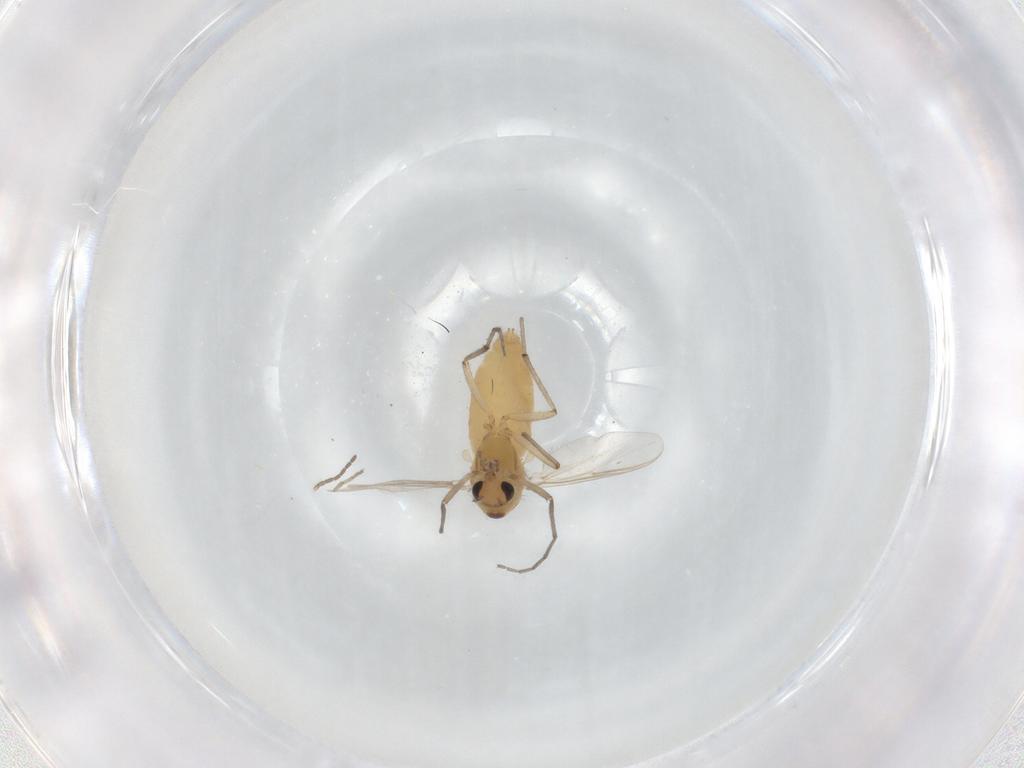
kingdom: Animalia
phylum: Arthropoda
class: Insecta
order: Diptera
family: Chironomidae
